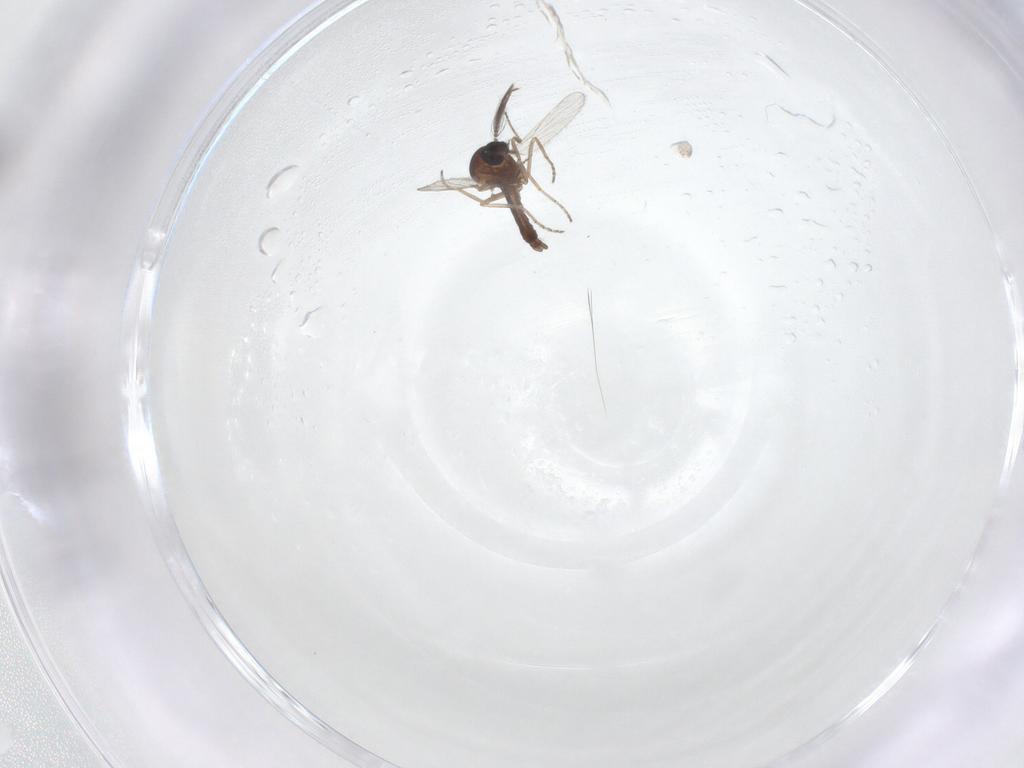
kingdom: Animalia
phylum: Arthropoda
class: Insecta
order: Diptera
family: Ceratopogonidae
